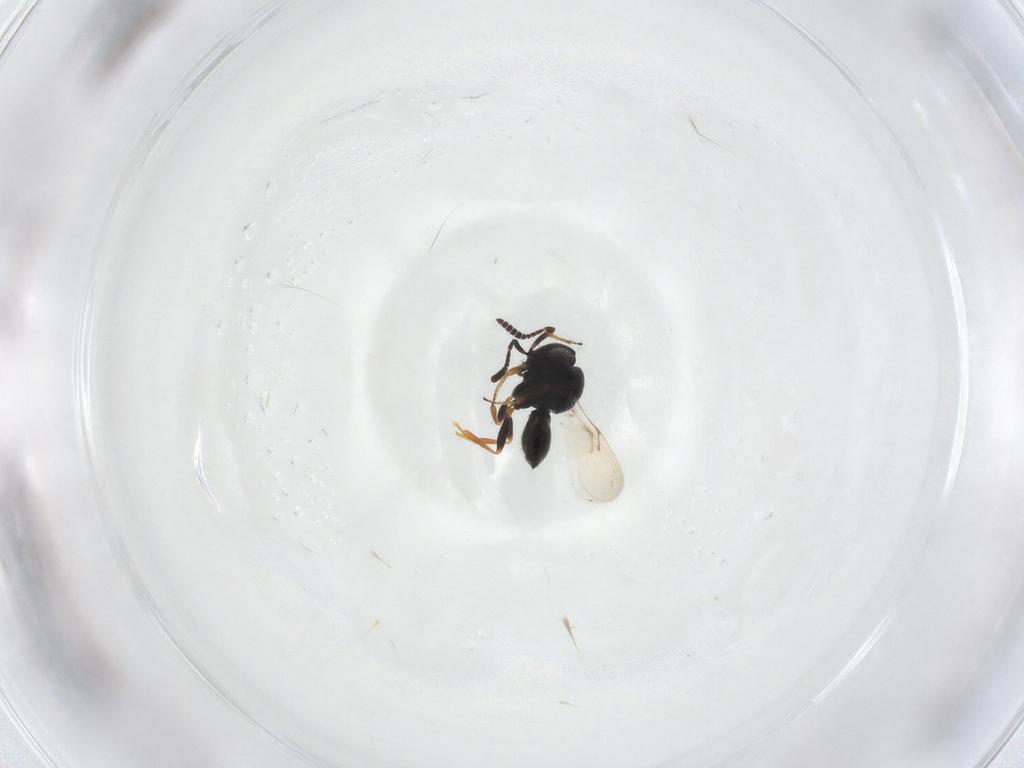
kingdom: Animalia
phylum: Arthropoda
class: Insecta
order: Hymenoptera
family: Scelionidae
